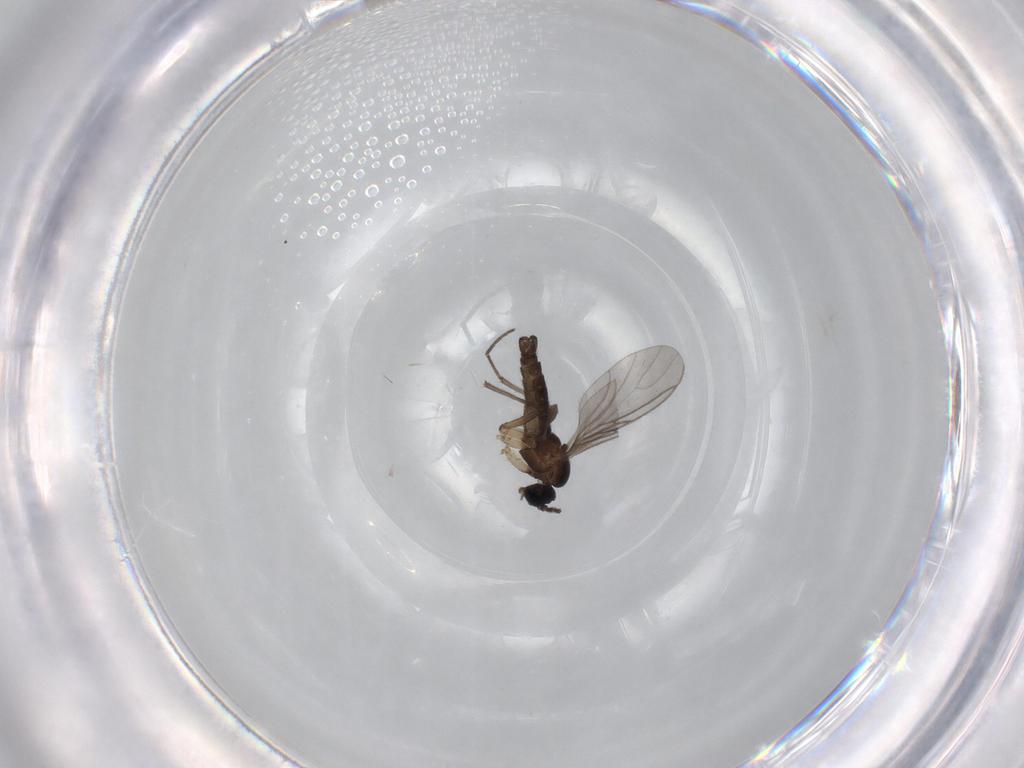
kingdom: Animalia
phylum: Arthropoda
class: Insecta
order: Diptera
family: Sciaridae
